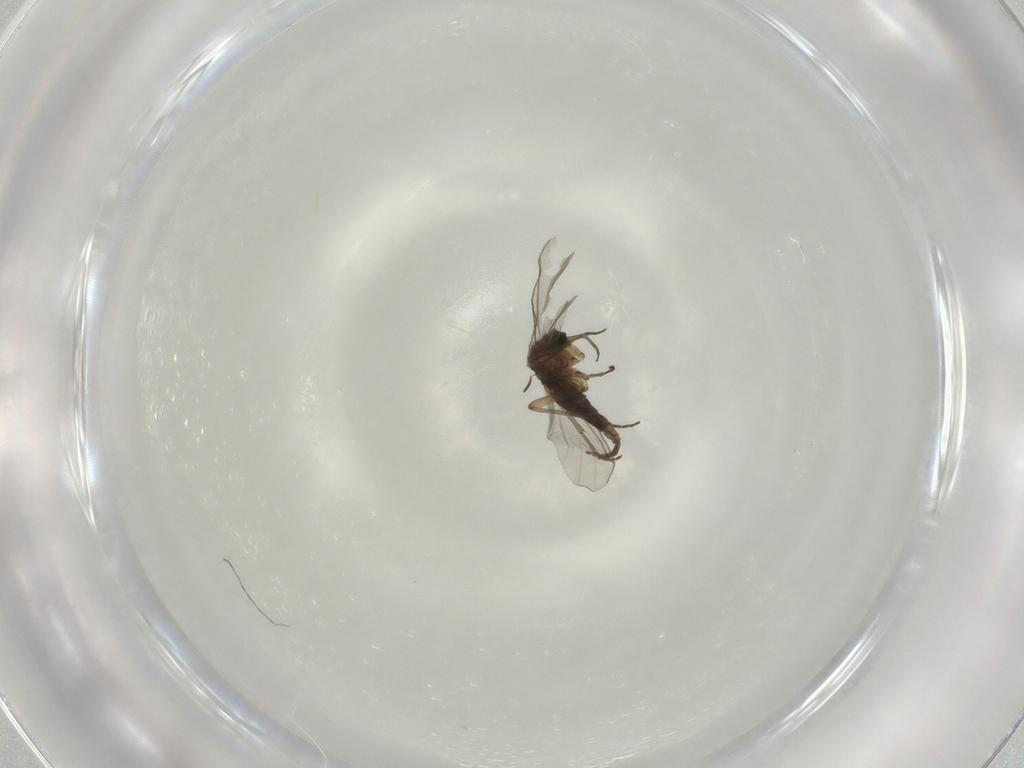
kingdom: Animalia
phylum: Arthropoda
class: Insecta
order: Diptera
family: Sciaridae
